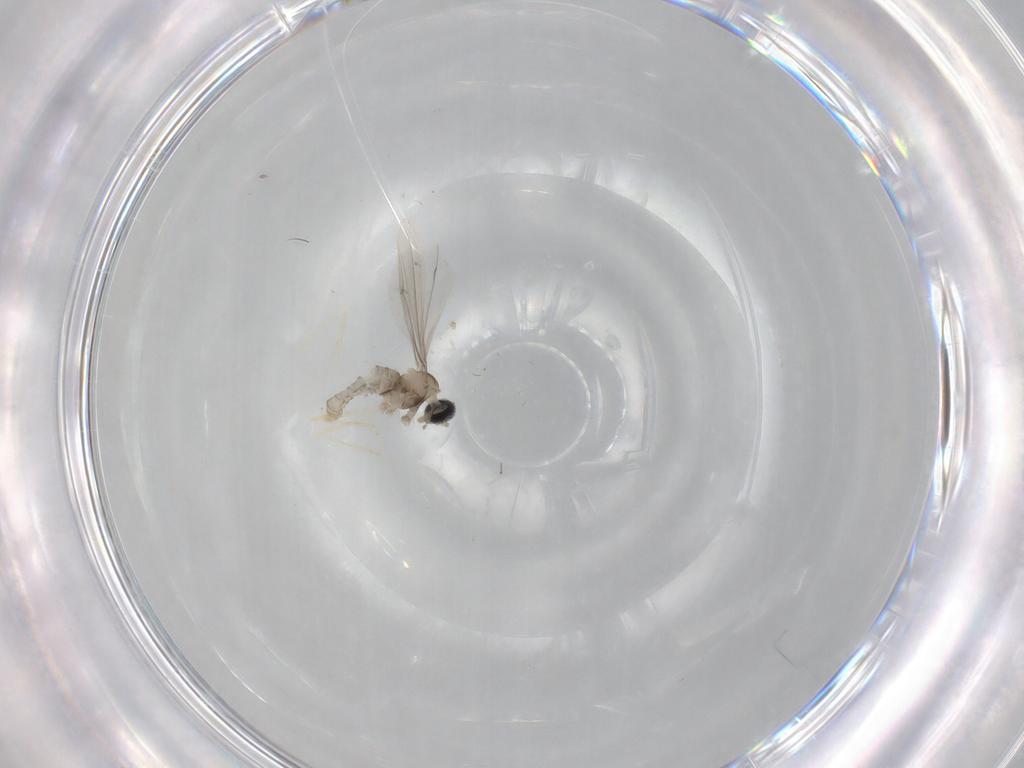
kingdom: Animalia
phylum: Arthropoda
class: Insecta
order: Diptera
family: Cecidomyiidae
